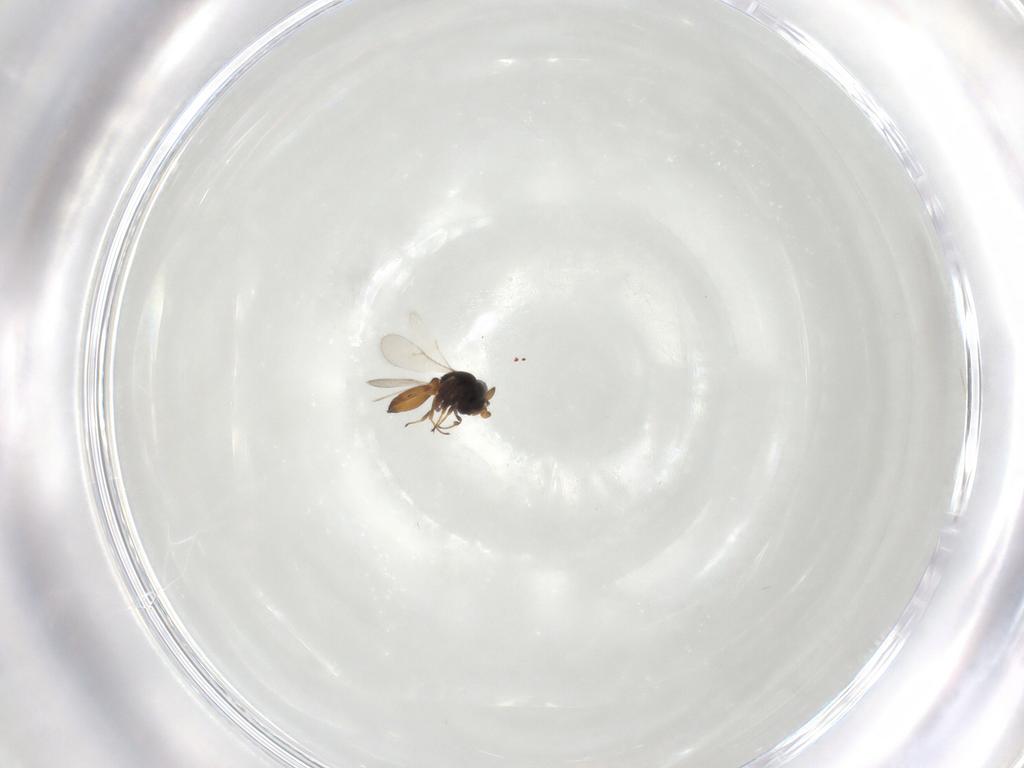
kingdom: Animalia
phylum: Arthropoda
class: Insecta
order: Hymenoptera
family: Scelionidae
